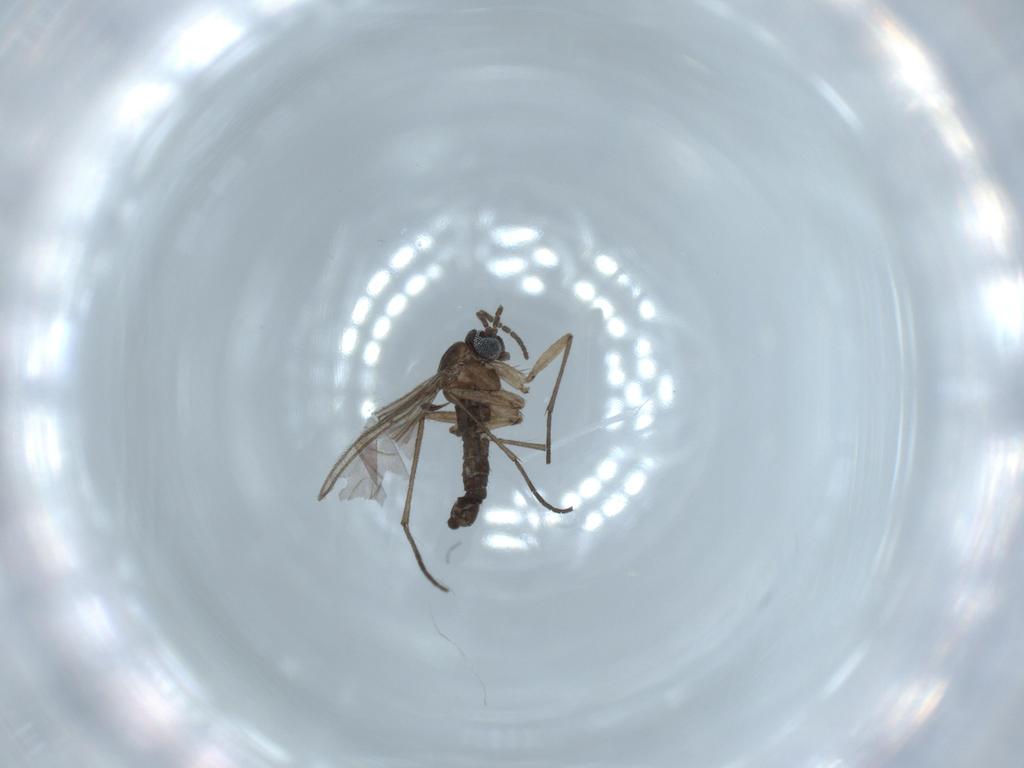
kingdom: Animalia
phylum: Arthropoda
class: Insecta
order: Diptera
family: Sciaridae
